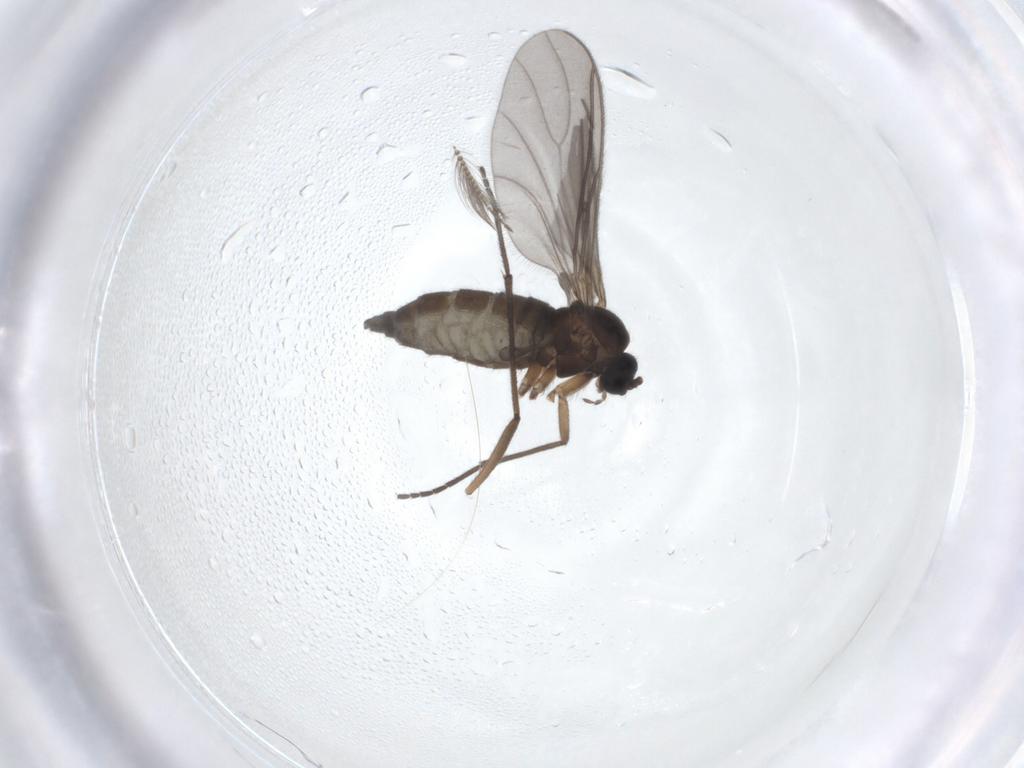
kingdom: Animalia
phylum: Arthropoda
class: Insecta
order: Diptera
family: Sciaridae
